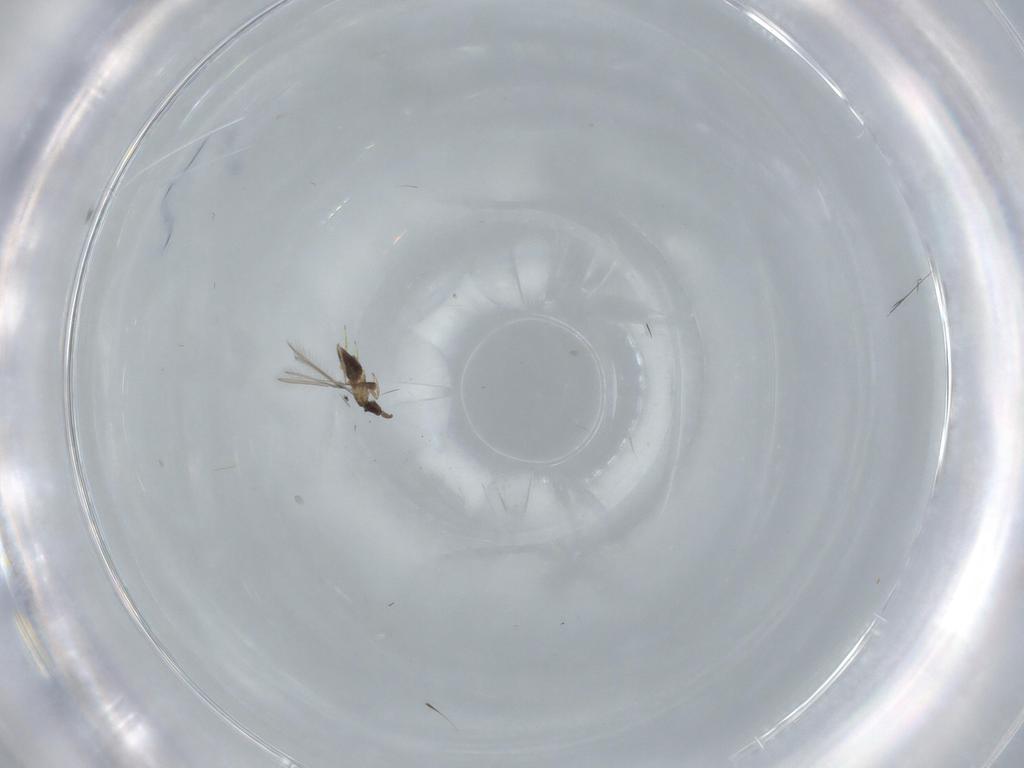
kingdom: Animalia
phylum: Arthropoda
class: Insecta
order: Hymenoptera
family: Mymaridae
